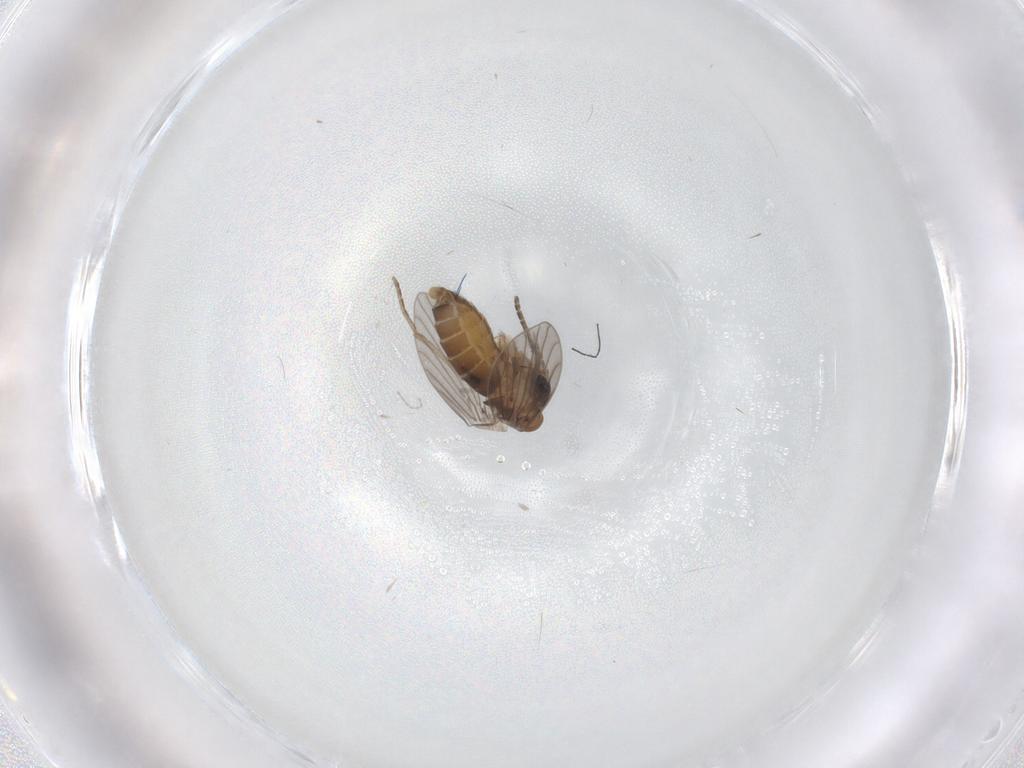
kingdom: Animalia
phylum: Arthropoda
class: Insecta
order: Diptera
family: Cecidomyiidae
